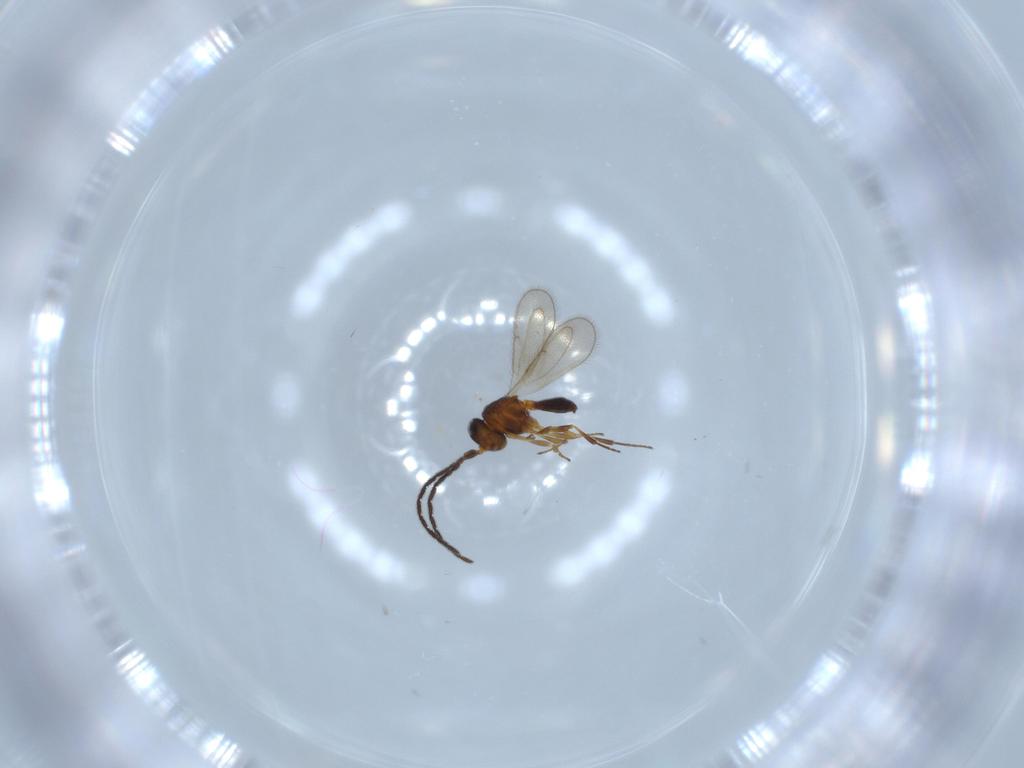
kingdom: Animalia
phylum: Arthropoda
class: Insecta
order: Hymenoptera
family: Scelionidae
